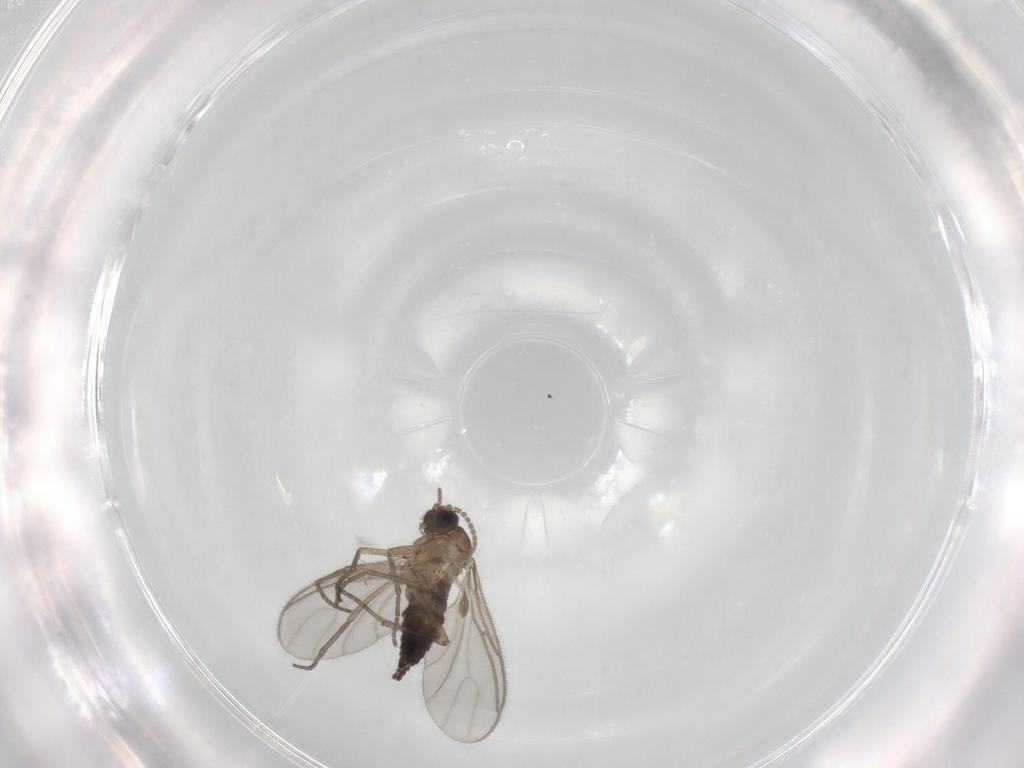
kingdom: Animalia
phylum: Arthropoda
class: Insecta
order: Diptera
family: Sciaridae
